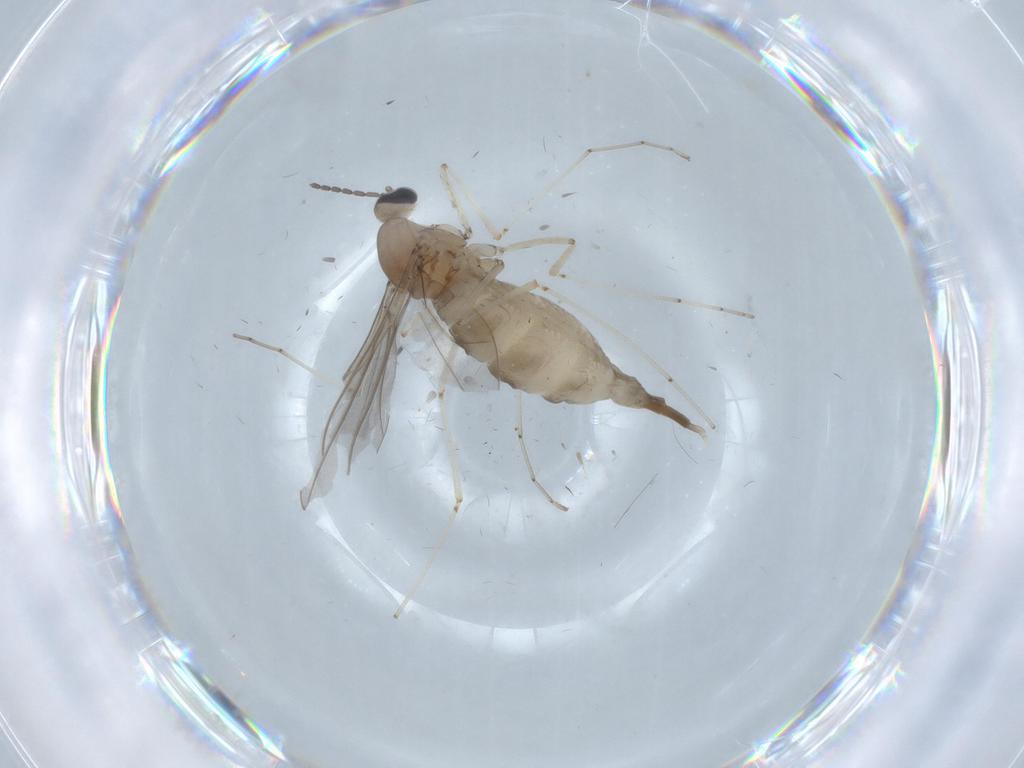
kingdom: Animalia
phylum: Arthropoda
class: Insecta
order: Diptera
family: Cecidomyiidae
